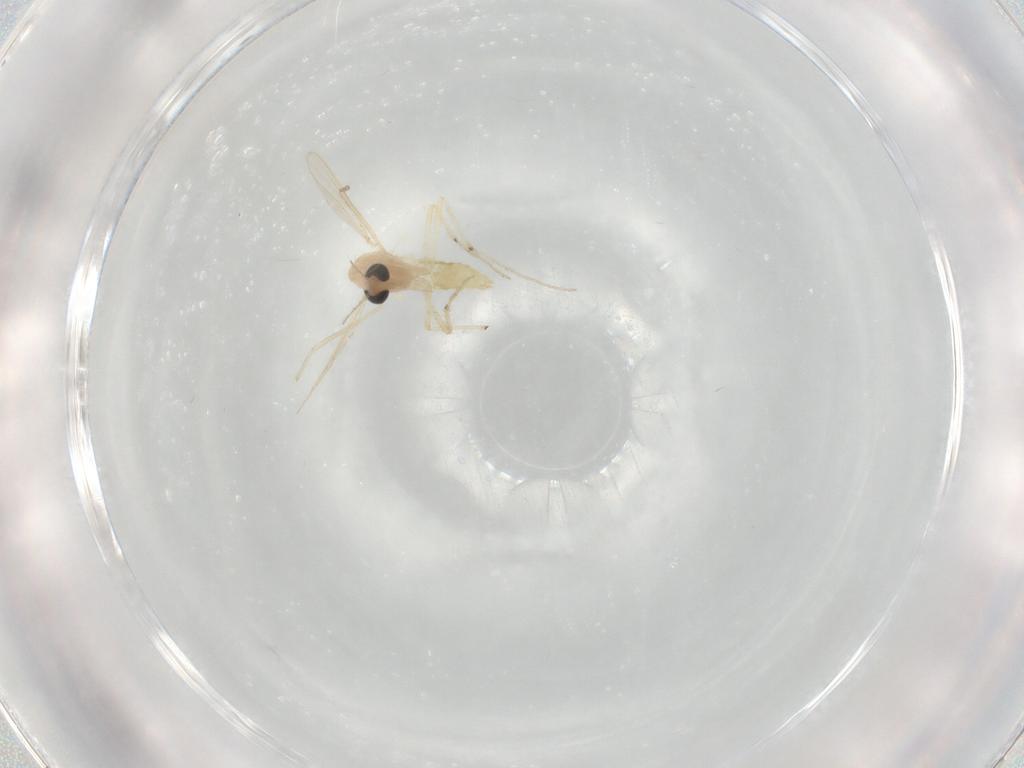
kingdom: Animalia
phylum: Arthropoda
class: Insecta
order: Diptera
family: Chironomidae
